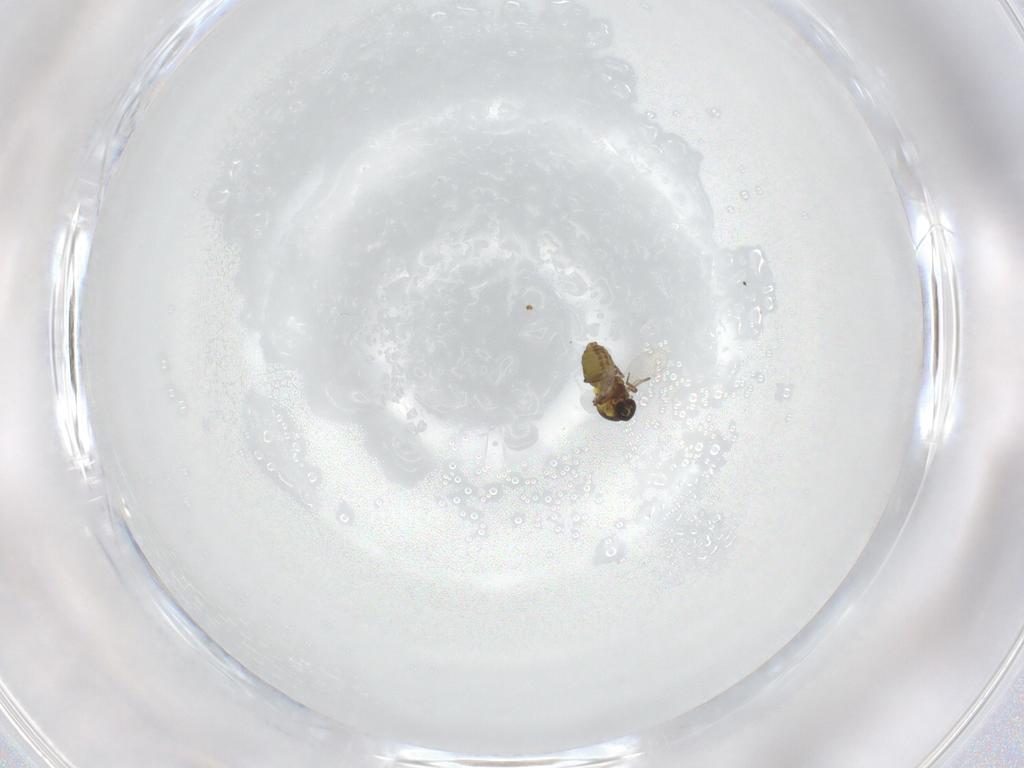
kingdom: Animalia
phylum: Arthropoda
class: Insecta
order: Diptera
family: Ceratopogonidae
